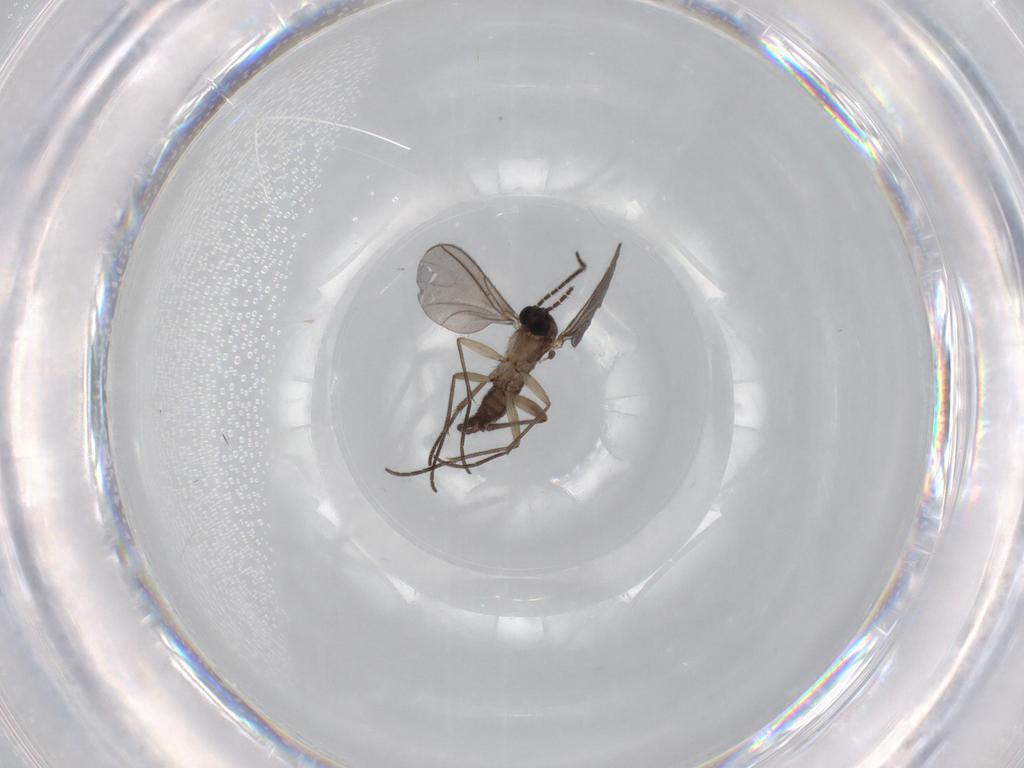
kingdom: Animalia
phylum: Arthropoda
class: Insecta
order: Diptera
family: Sciaridae
